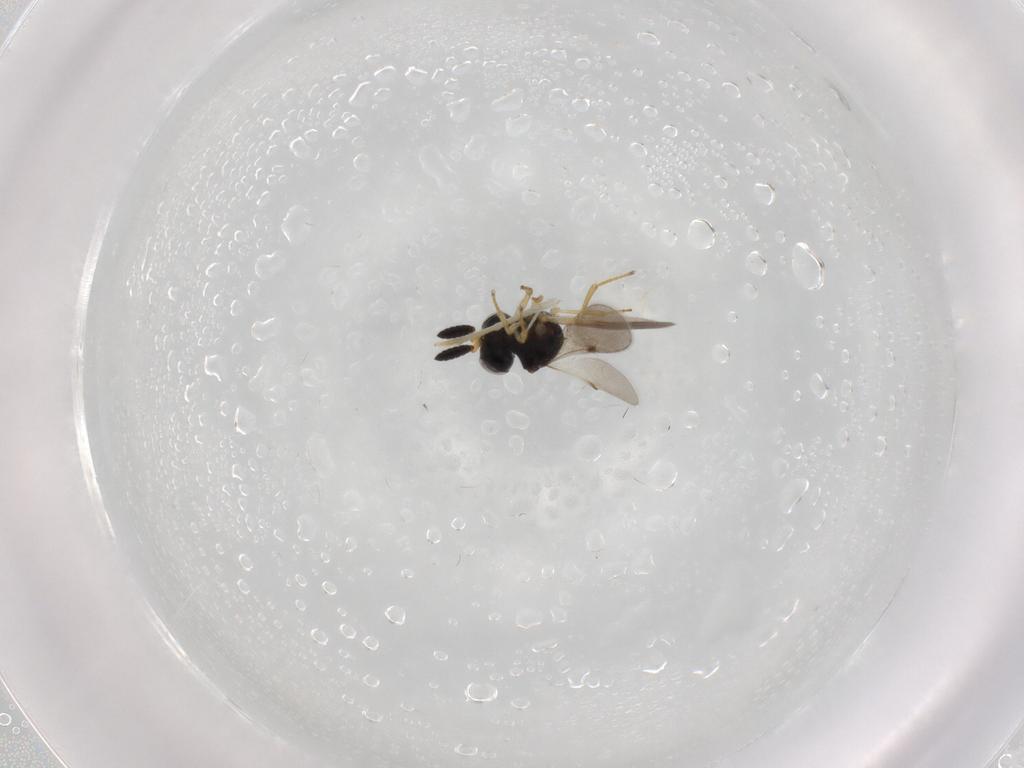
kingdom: Animalia
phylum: Arthropoda
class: Insecta
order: Hymenoptera
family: Scelionidae
